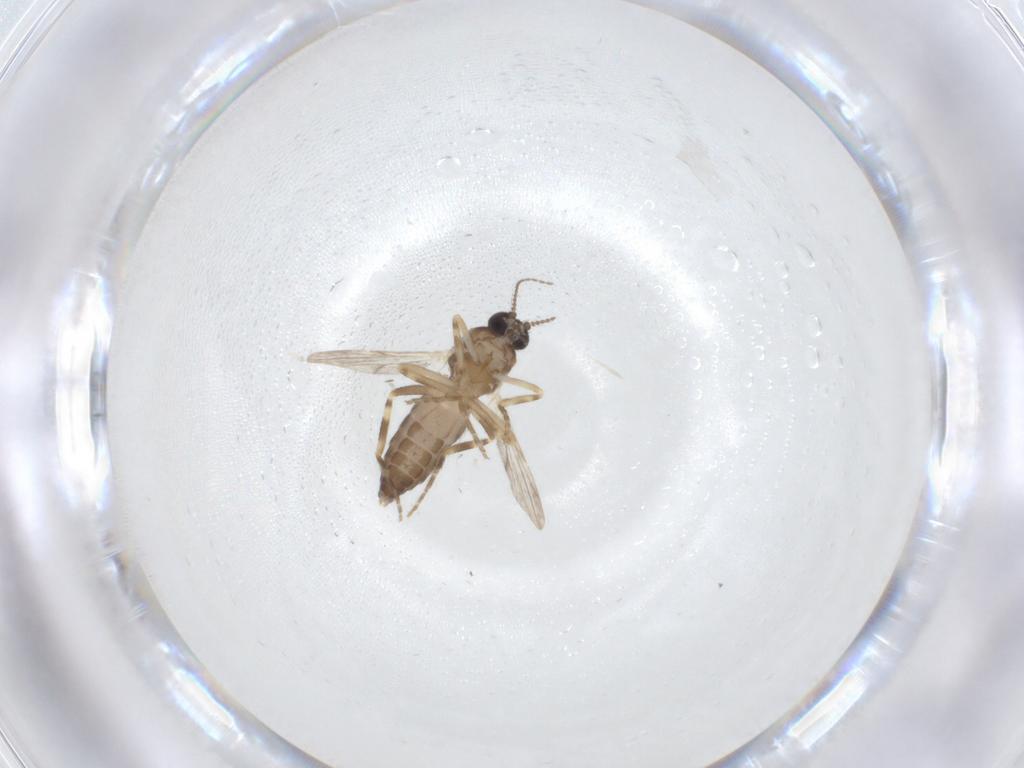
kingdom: Animalia
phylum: Arthropoda
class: Insecta
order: Diptera
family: Ceratopogonidae
